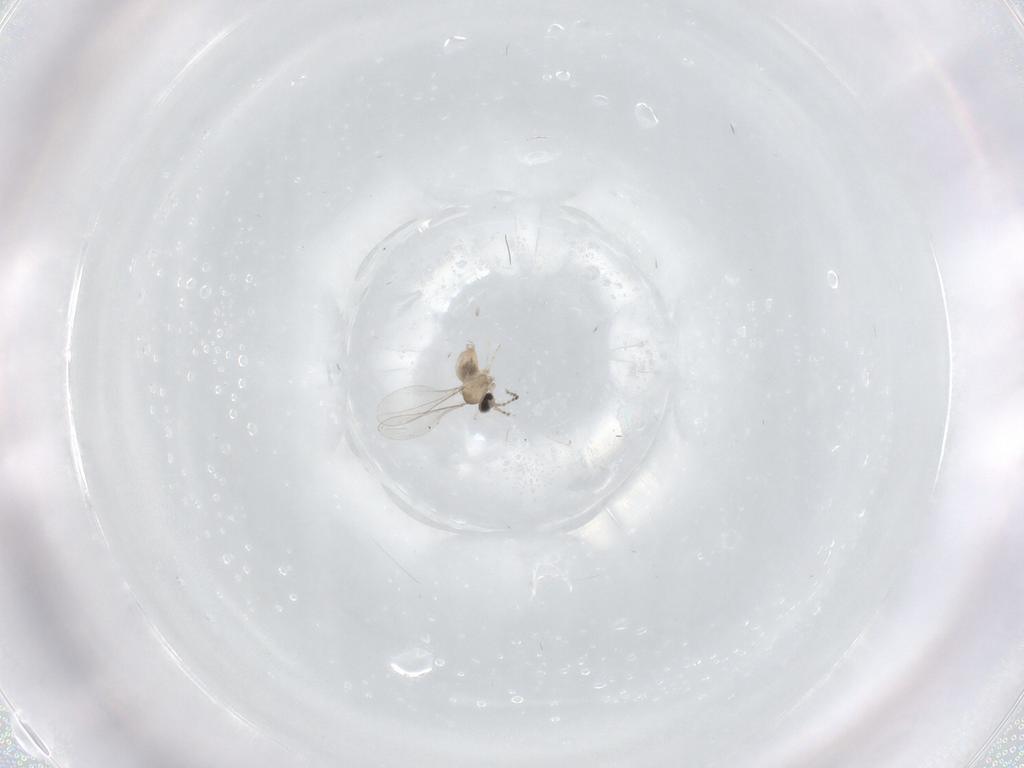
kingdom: Animalia
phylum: Arthropoda
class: Insecta
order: Diptera
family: Cecidomyiidae
